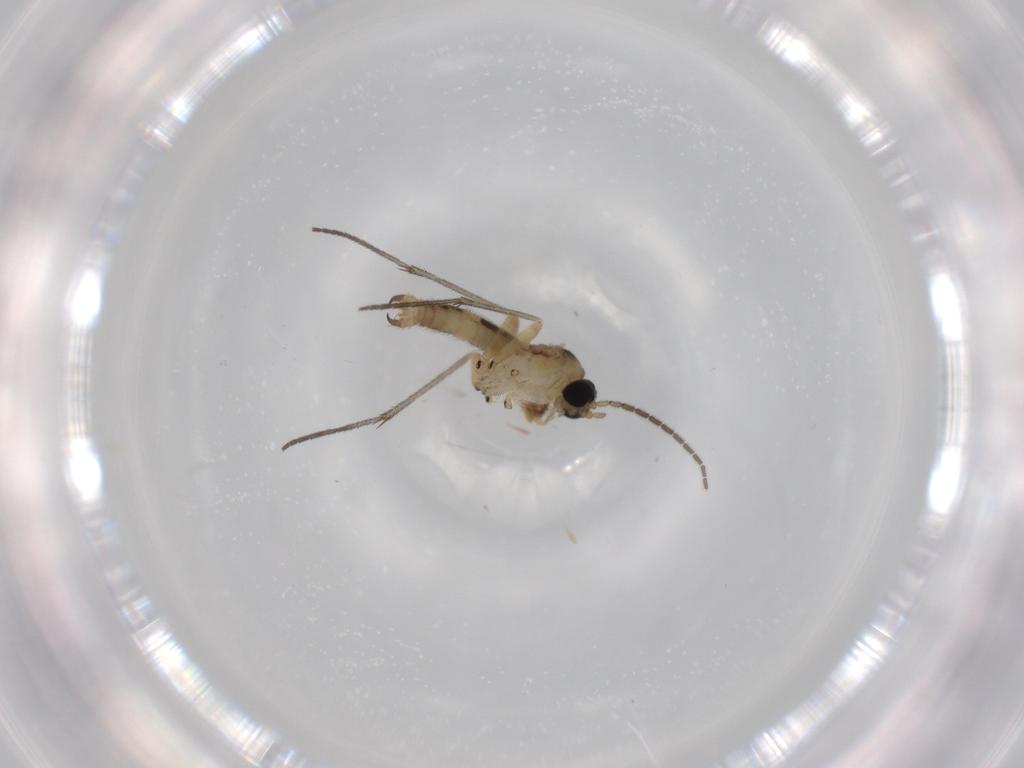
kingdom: Animalia
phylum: Arthropoda
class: Insecta
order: Diptera
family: Sciaridae
